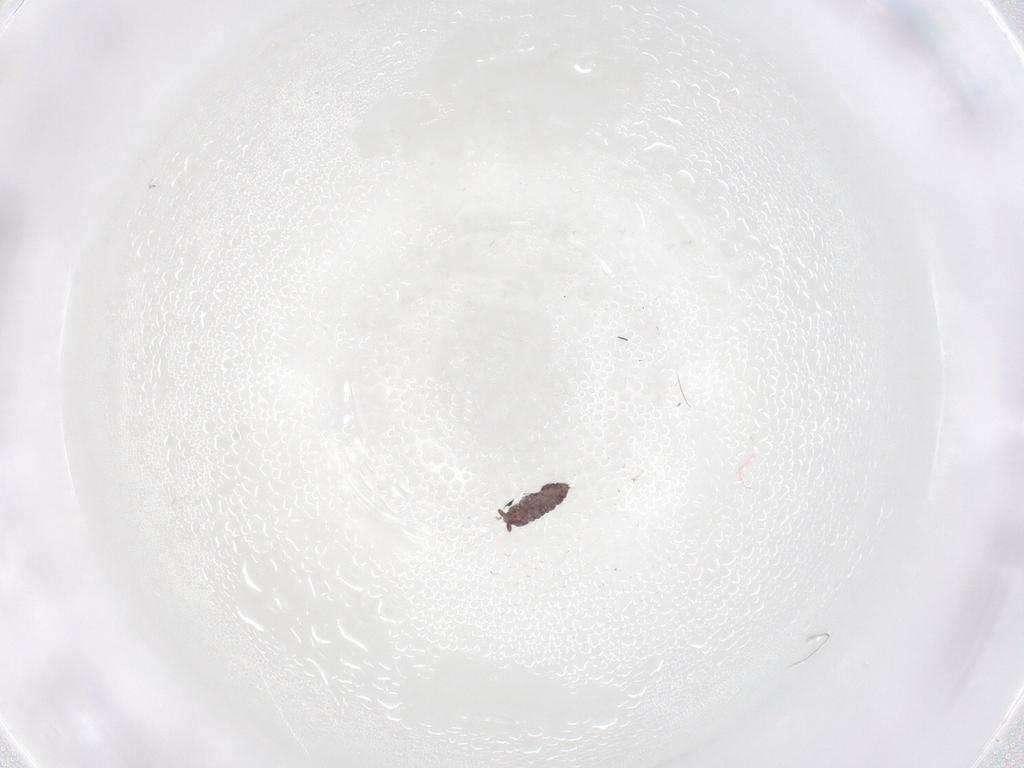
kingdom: Animalia
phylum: Arthropoda
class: Collembola
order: Poduromorpha
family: Hypogastruridae
